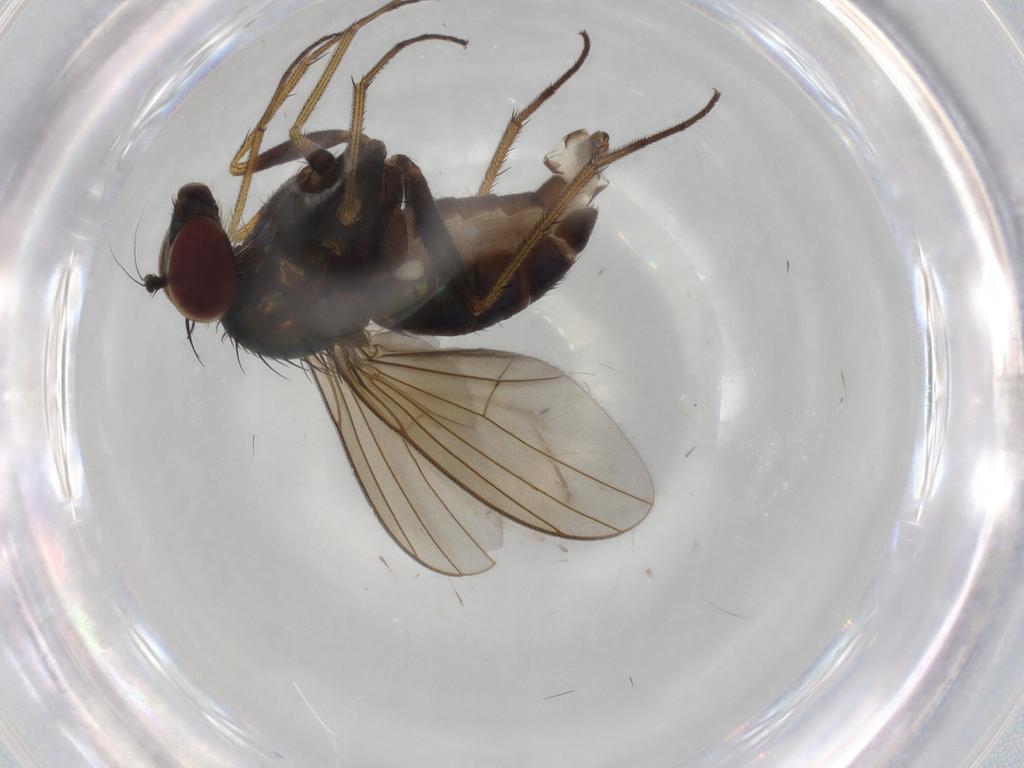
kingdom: Animalia
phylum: Arthropoda
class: Insecta
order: Diptera
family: Dolichopodidae
